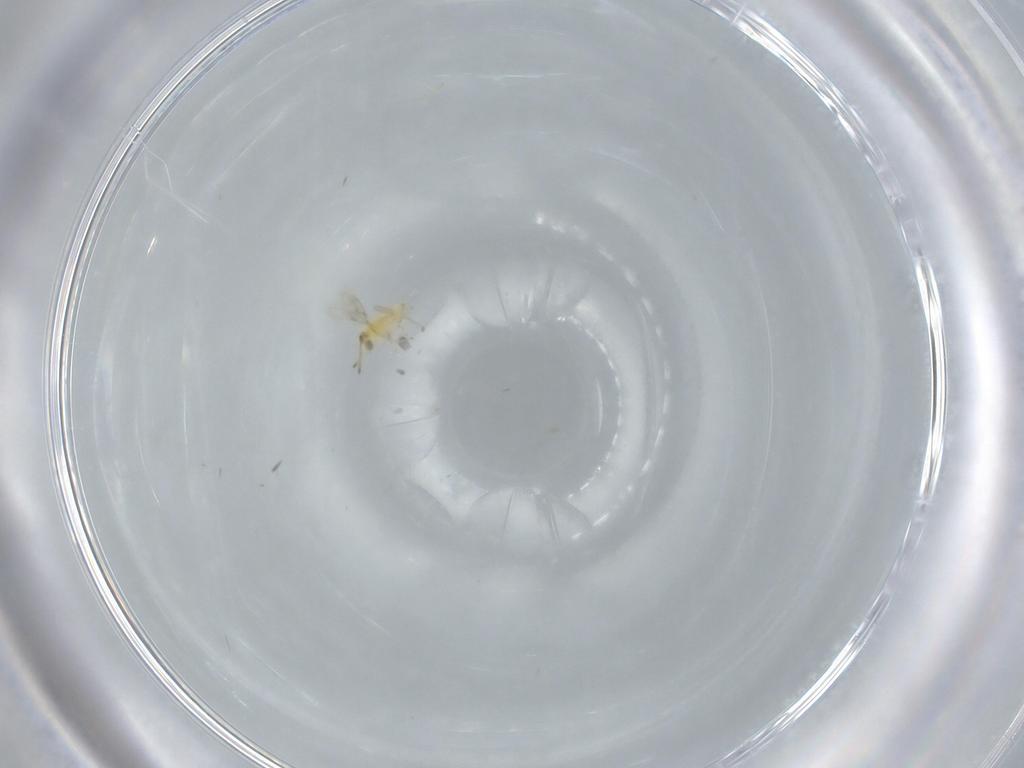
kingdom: Animalia
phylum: Arthropoda
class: Insecta
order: Hymenoptera
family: Aphelinidae
